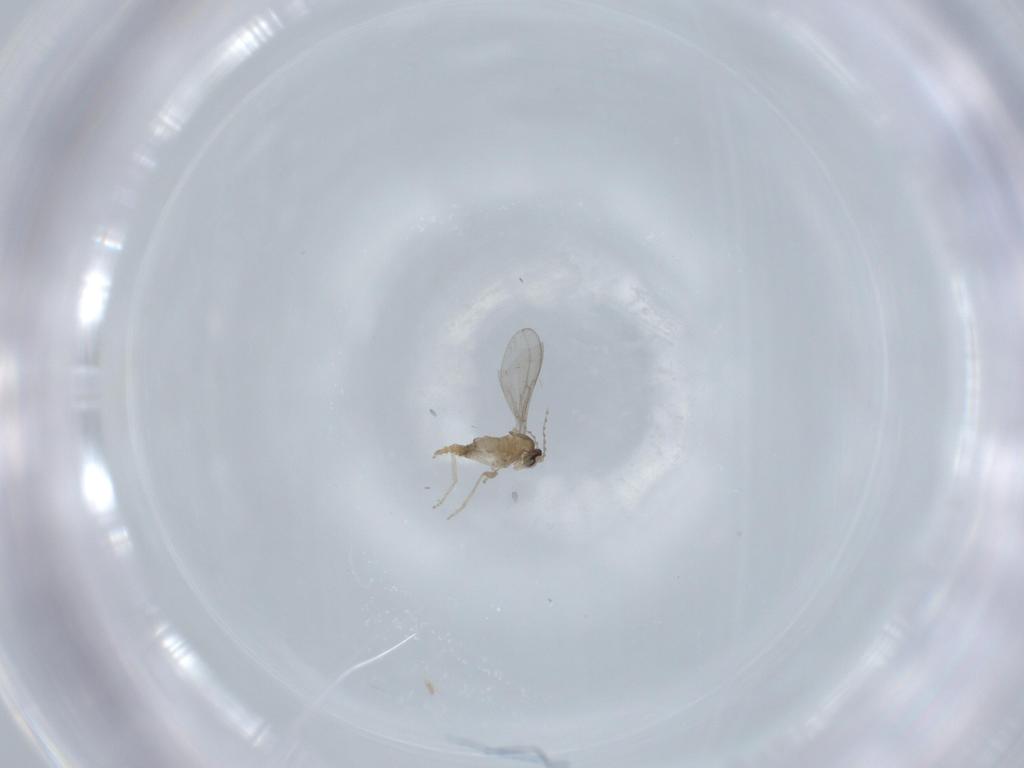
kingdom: Animalia
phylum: Arthropoda
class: Insecta
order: Diptera
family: Cecidomyiidae
